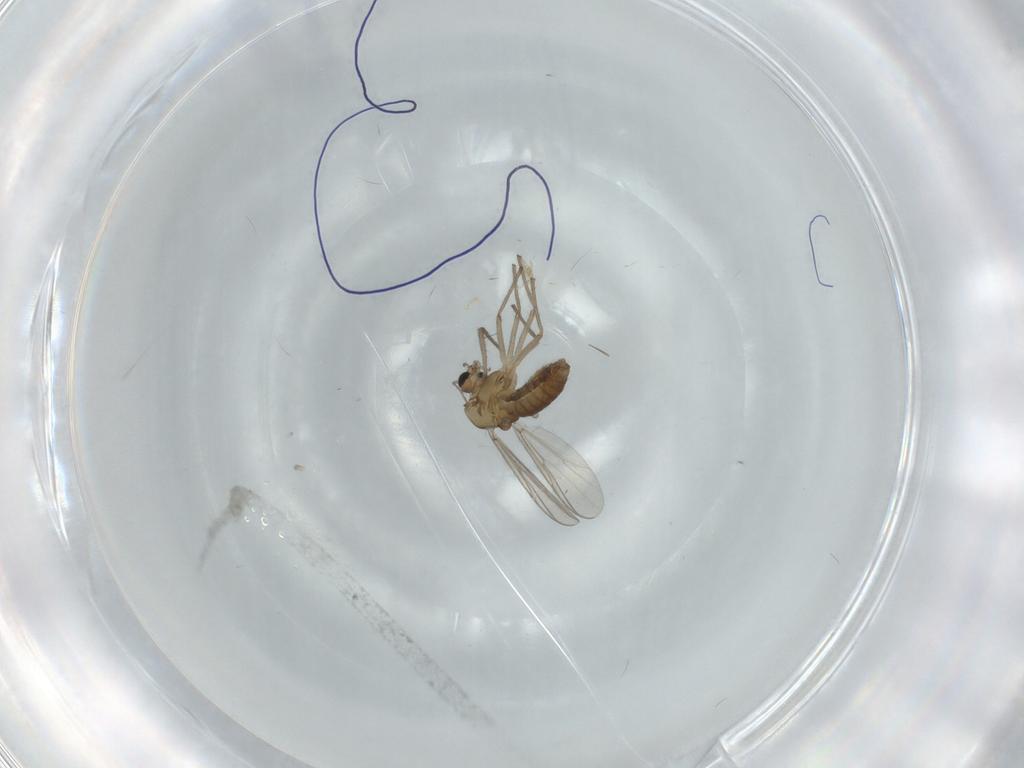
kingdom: Animalia
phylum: Arthropoda
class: Insecta
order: Diptera
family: Chironomidae
